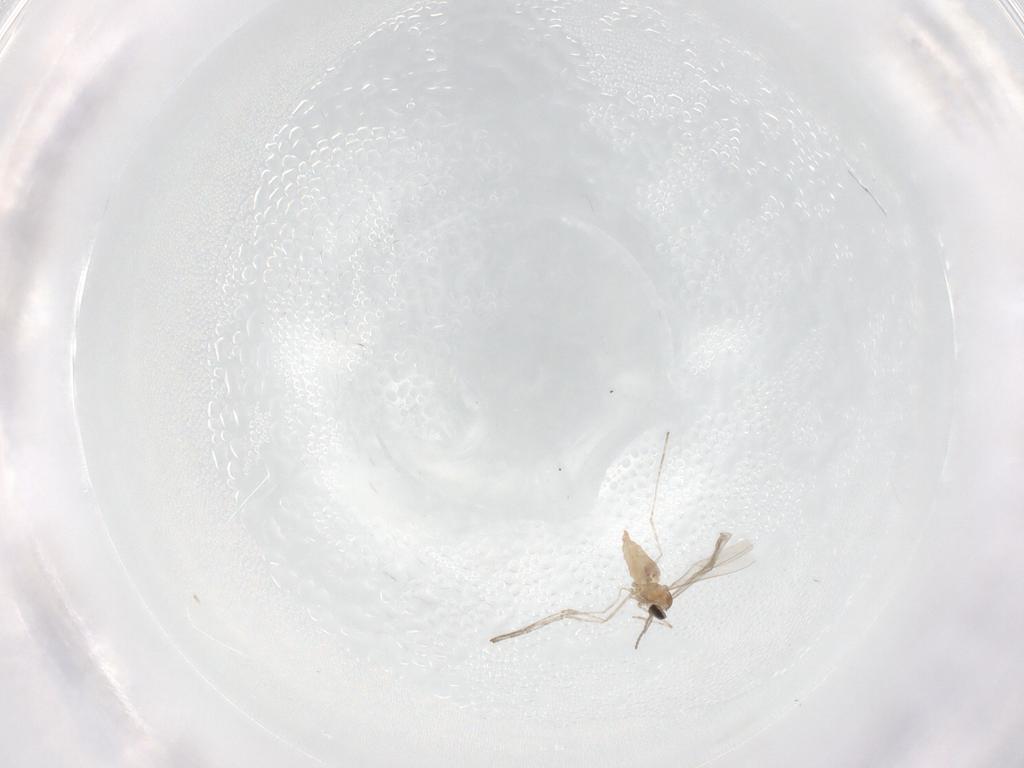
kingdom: Animalia
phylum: Arthropoda
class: Insecta
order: Diptera
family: Cecidomyiidae
